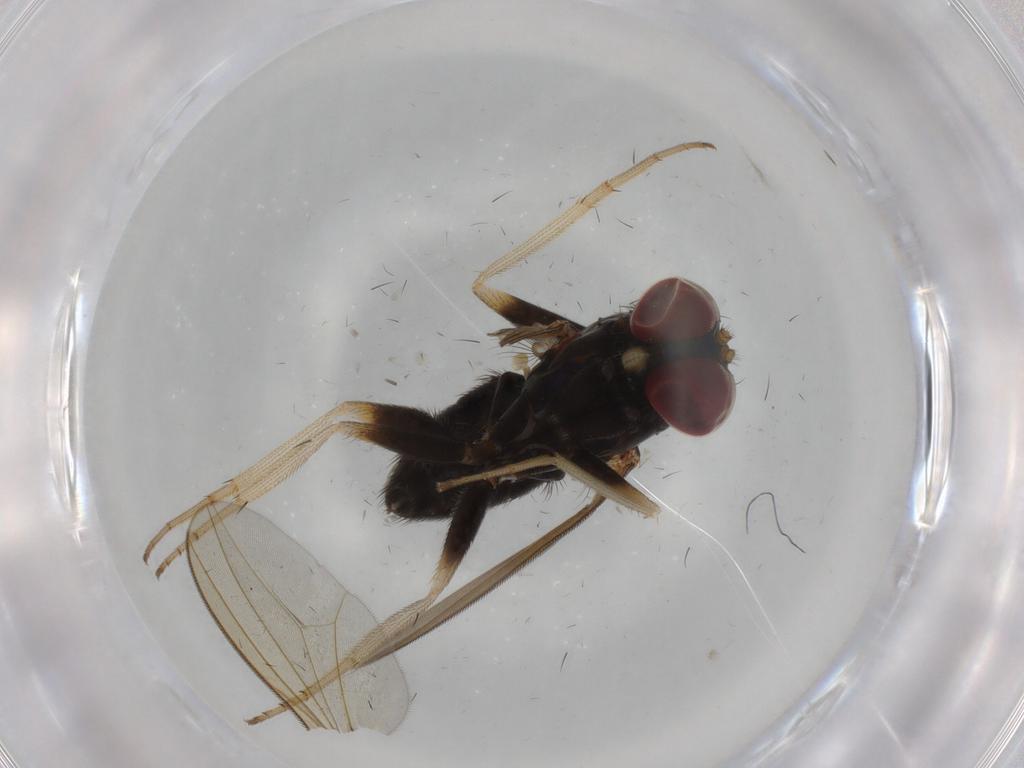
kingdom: Animalia
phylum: Arthropoda
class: Insecta
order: Diptera
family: Dolichopodidae
